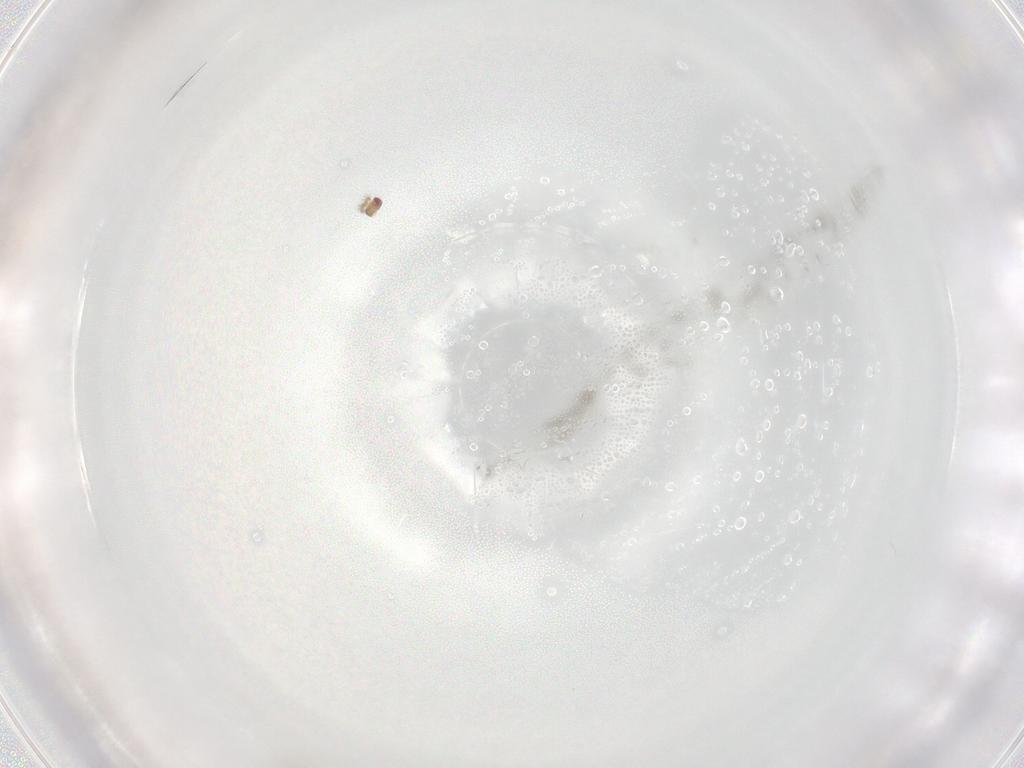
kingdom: Animalia
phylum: Arthropoda
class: Insecta
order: Hymenoptera
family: Trichogrammatidae
